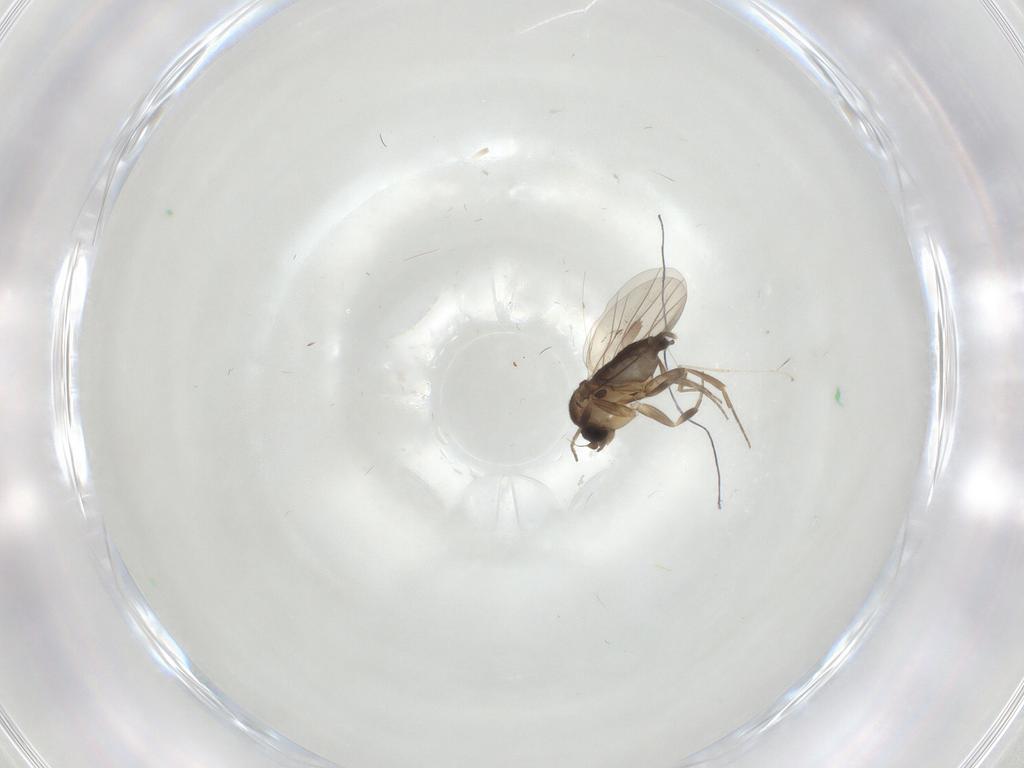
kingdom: Animalia
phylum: Arthropoda
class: Insecta
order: Diptera
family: Phoridae
